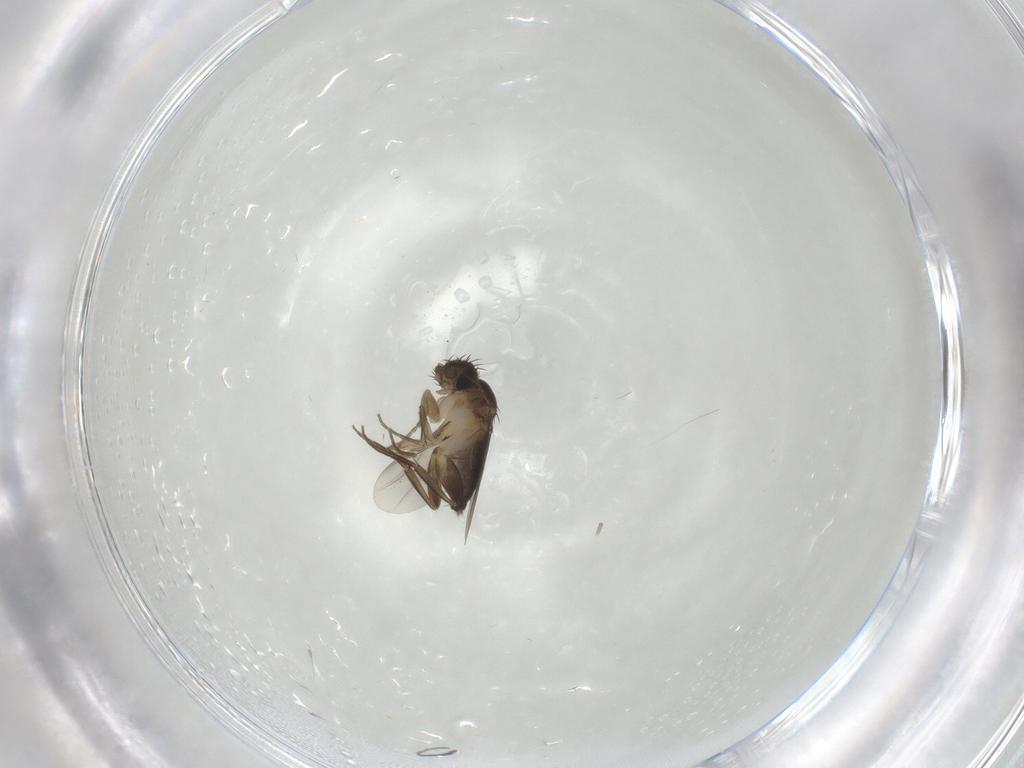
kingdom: Animalia
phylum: Arthropoda
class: Insecta
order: Diptera
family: Phoridae
